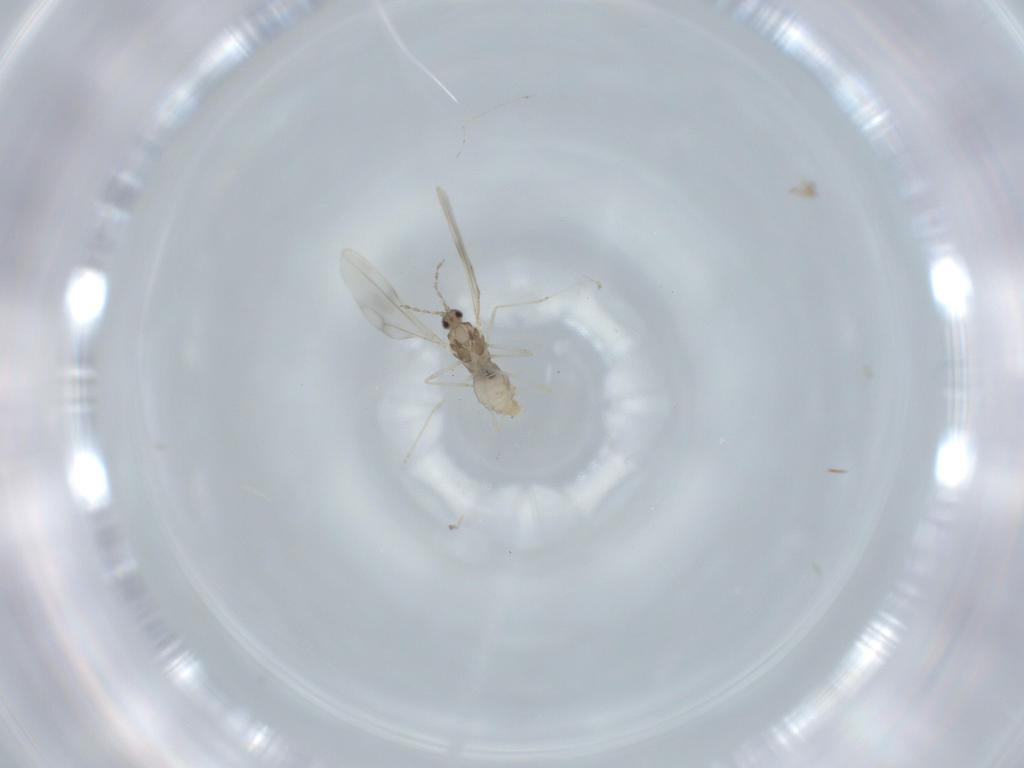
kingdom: Animalia
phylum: Arthropoda
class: Insecta
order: Diptera
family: Cecidomyiidae
